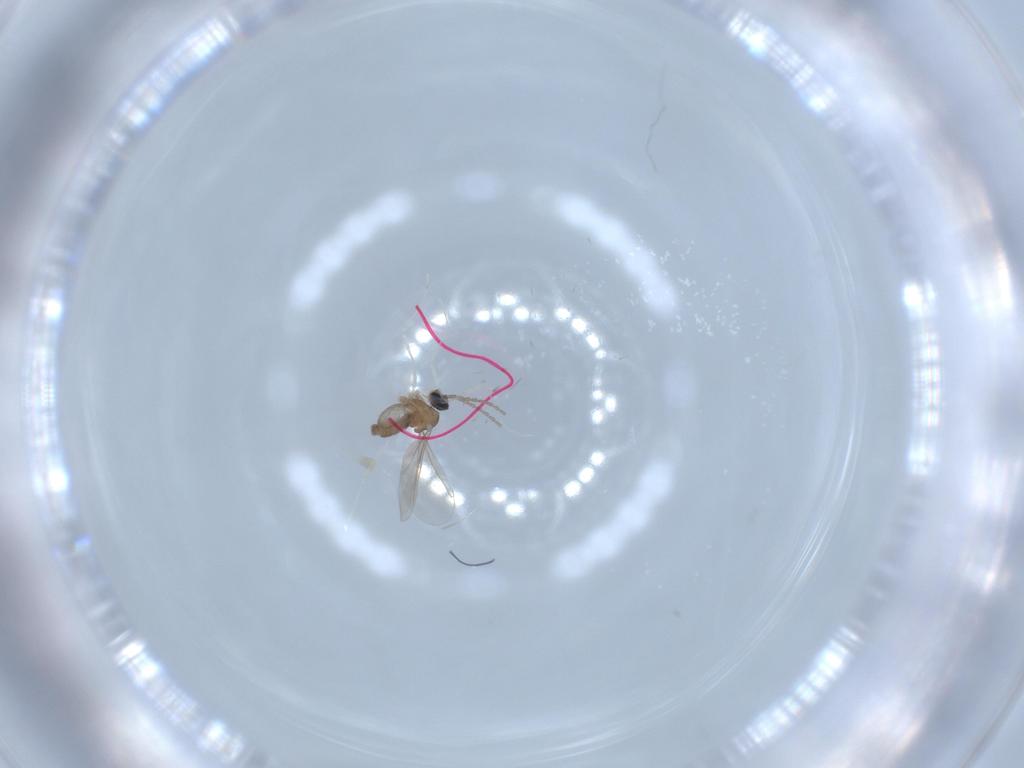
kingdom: Animalia
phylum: Arthropoda
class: Insecta
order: Diptera
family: Cecidomyiidae
